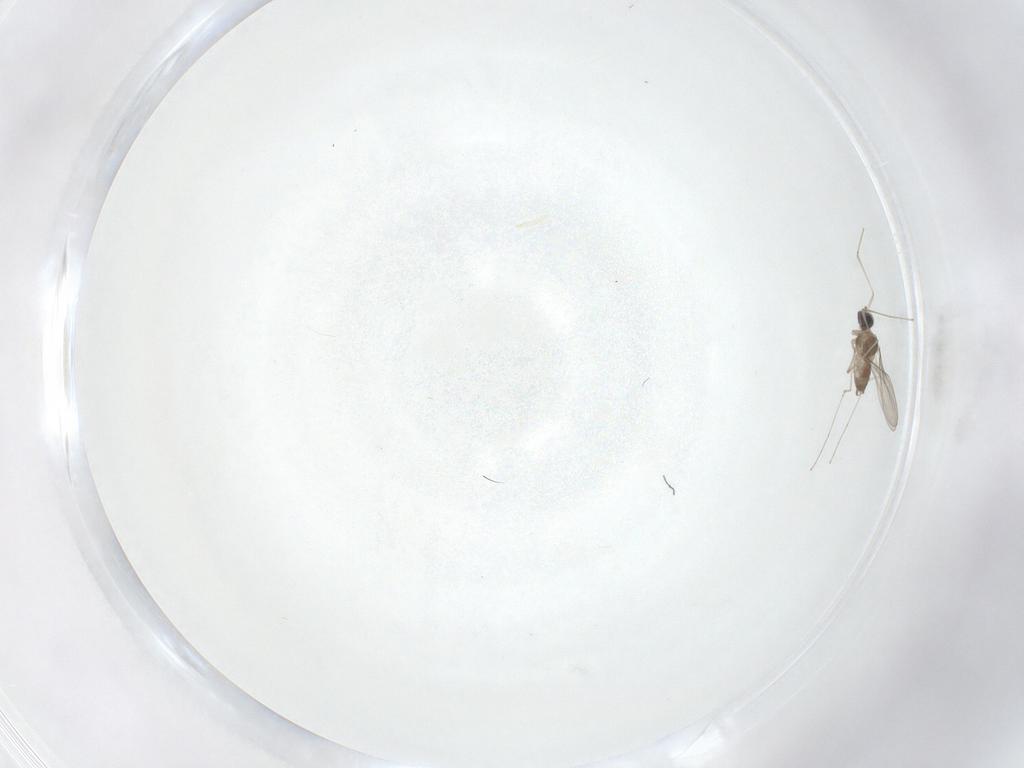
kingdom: Animalia
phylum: Arthropoda
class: Insecta
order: Diptera
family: Cecidomyiidae
